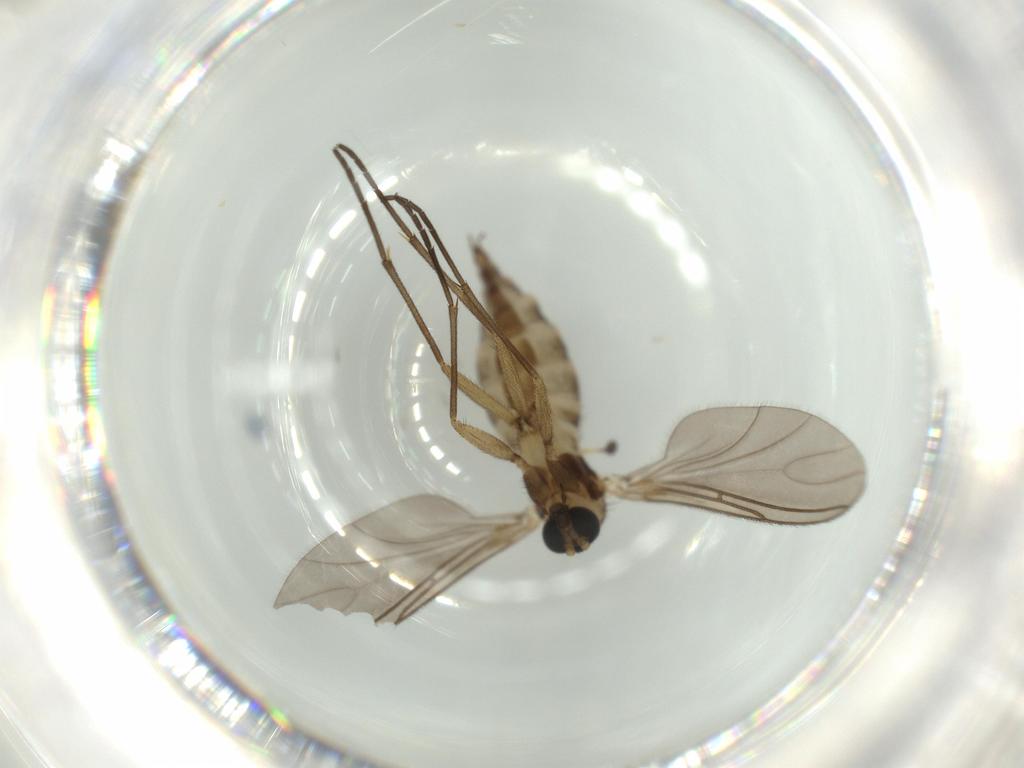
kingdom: Animalia
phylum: Arthropoda
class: Insecta
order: Diptera
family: Sciaridae
